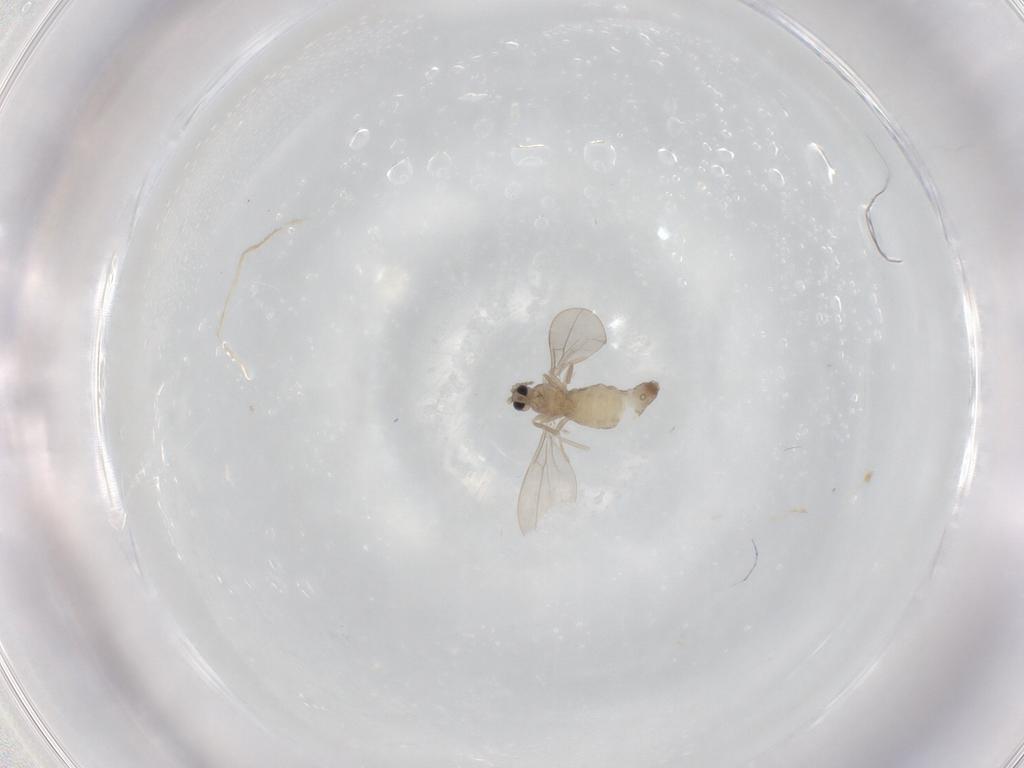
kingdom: Animalia
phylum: Arthropoda
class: Insecta
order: Diptera
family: Cecidomyiidae
